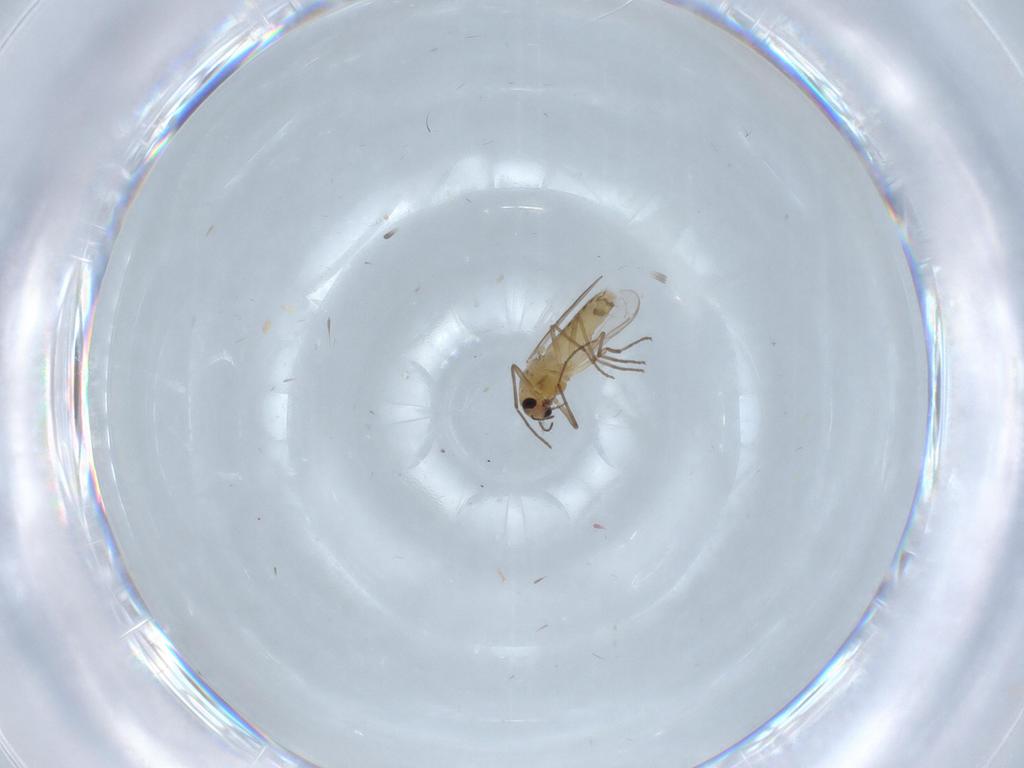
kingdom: Animalia
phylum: Arthropoda
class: Insecta
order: Diptera
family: Chironomidae
